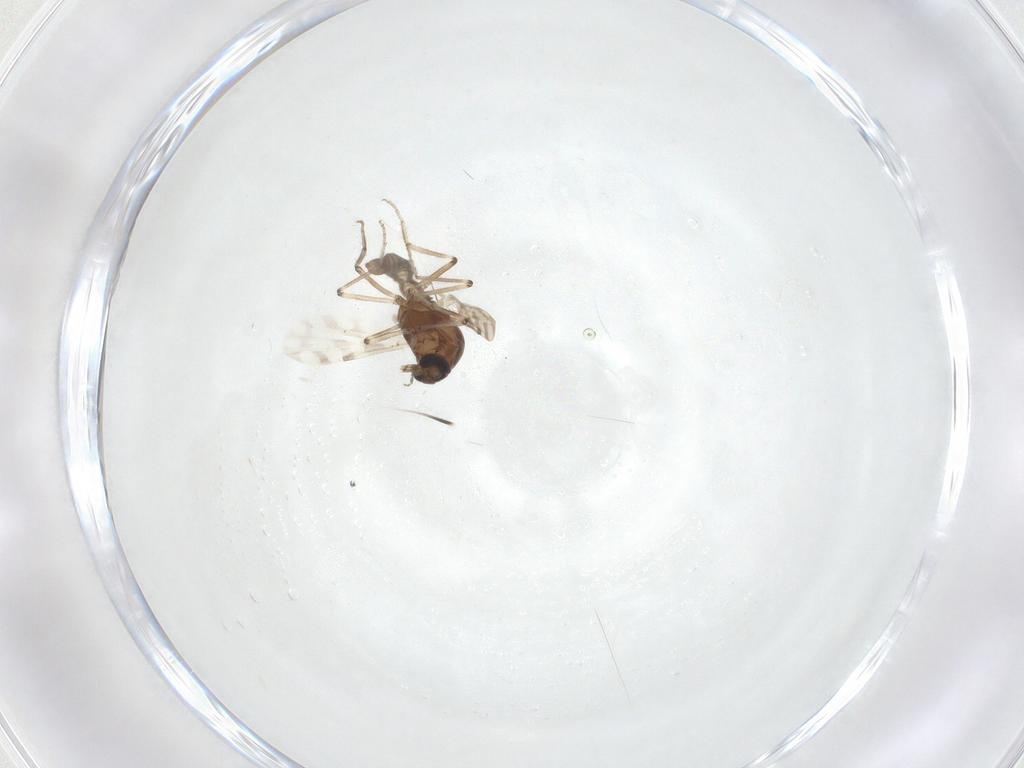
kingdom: Animalia
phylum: Arthropoda
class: Insecta
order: Diptera
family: Ceratopogonidae
